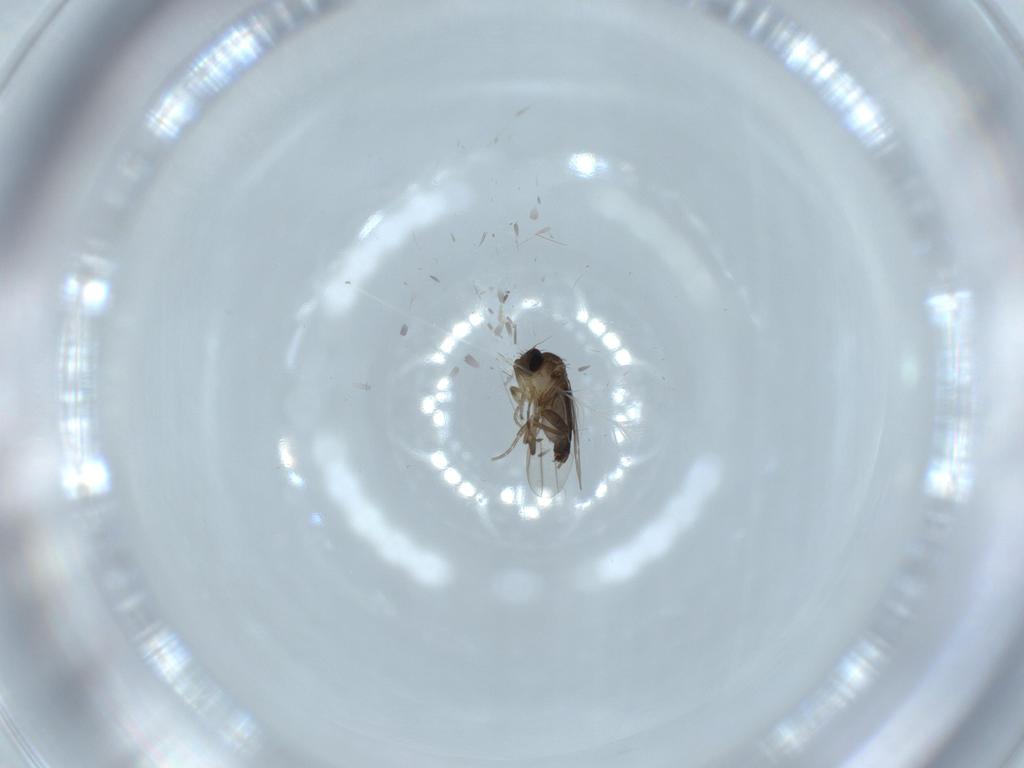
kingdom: Animalia
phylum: Arthropoda
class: Insecta
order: Diptera
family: Phoridae
